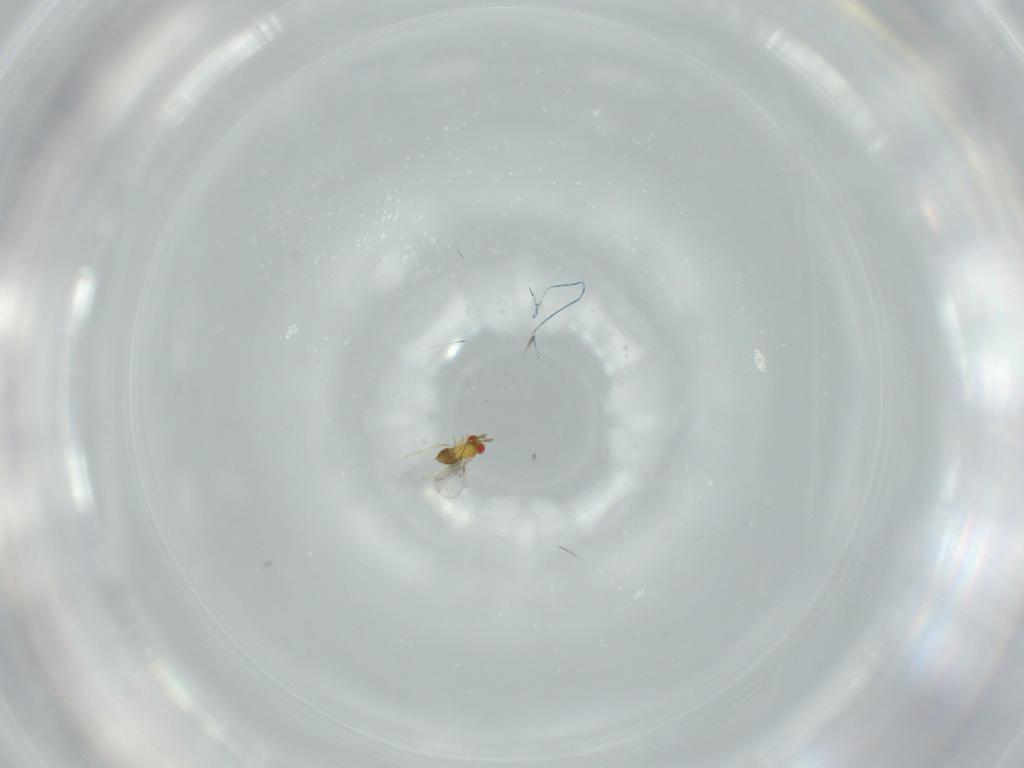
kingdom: Animalia
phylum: Arthropoda
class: Insecta
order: Hymenoptera
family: Trichogrammatidae
